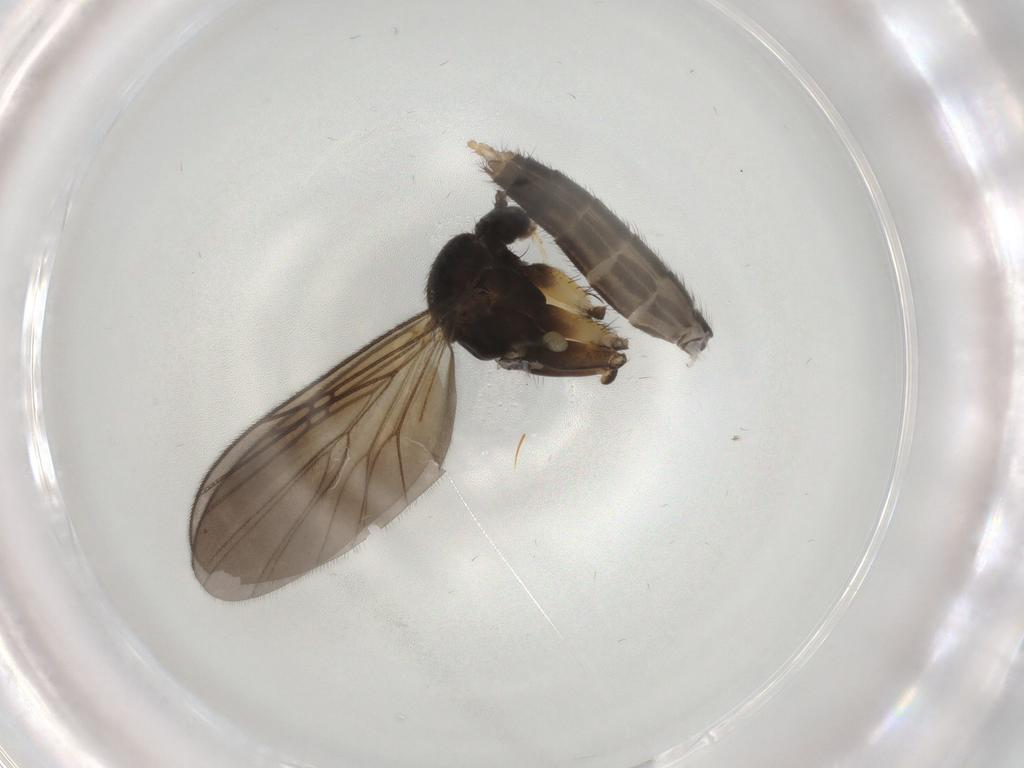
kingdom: Animalia
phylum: Arthropoda
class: Insecta
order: Diptera
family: Mycetophilidae
